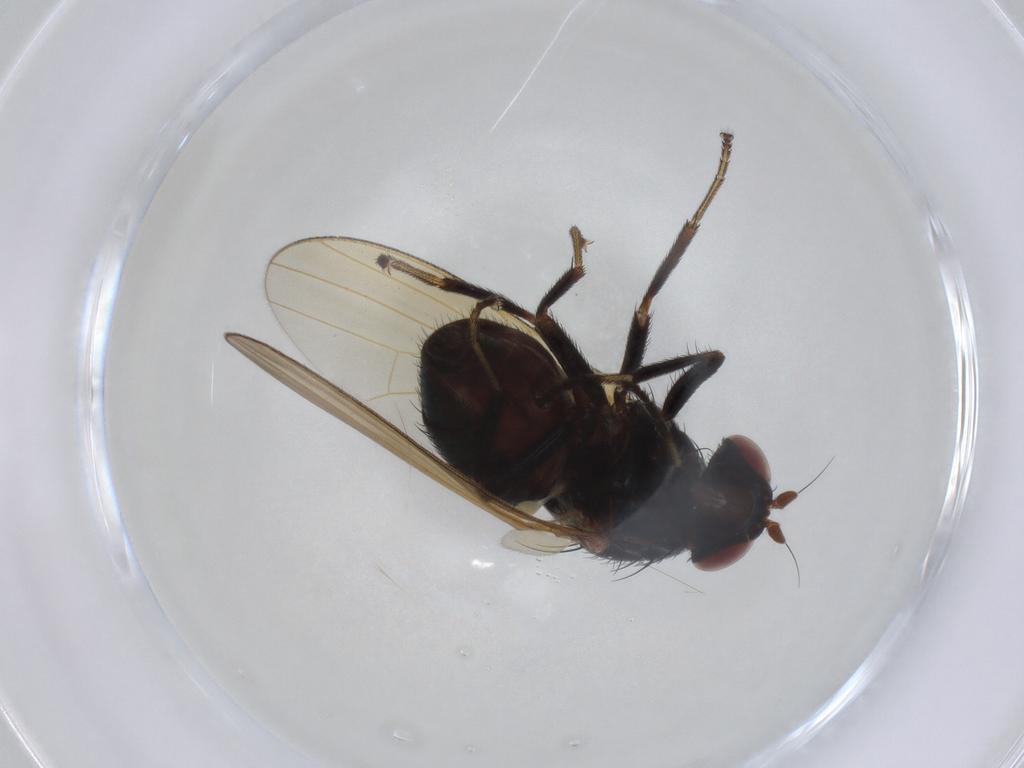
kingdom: Animalia
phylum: Arthropoda
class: Insecta
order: Diptera
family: Lauxaniidae
